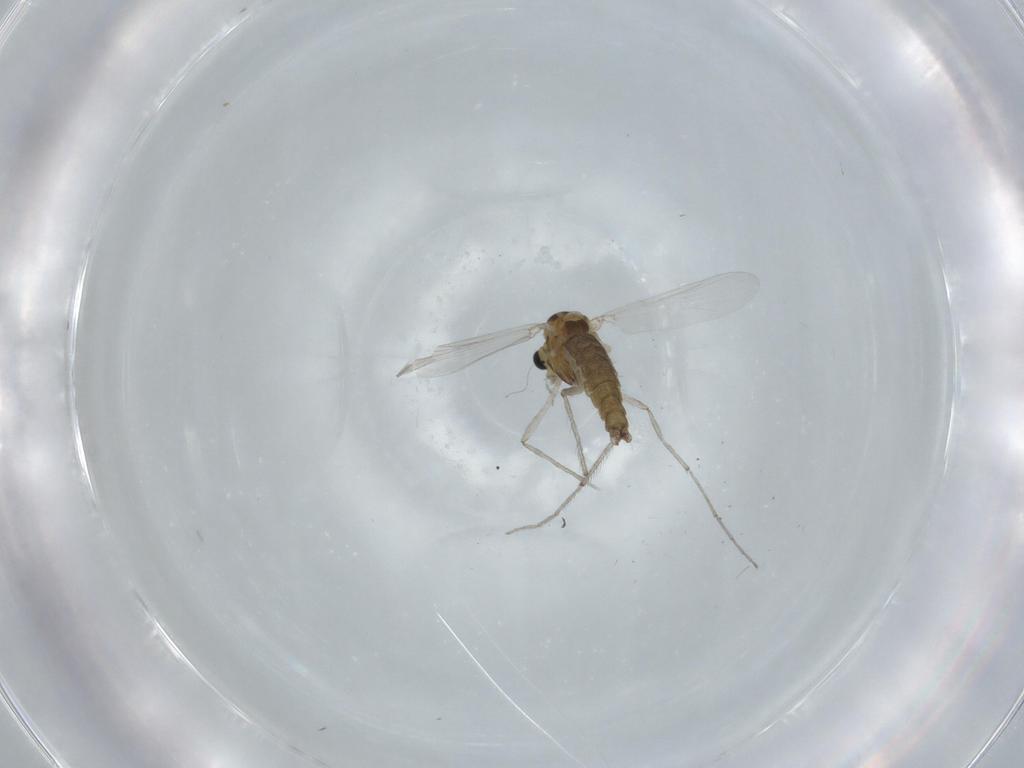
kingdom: Animalia
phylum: Arthropoda
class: Insecta
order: Diptera
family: Chironomidae
